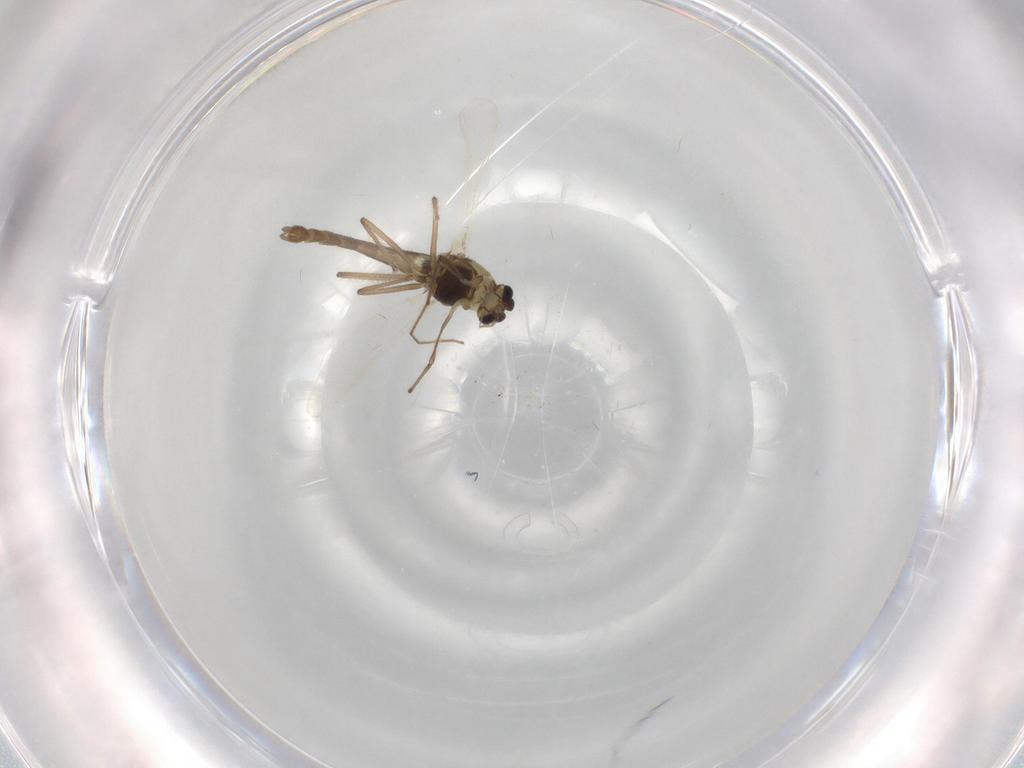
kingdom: Animalia
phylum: Arthropoda
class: Insecta
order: Diptera
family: Chironomidae
